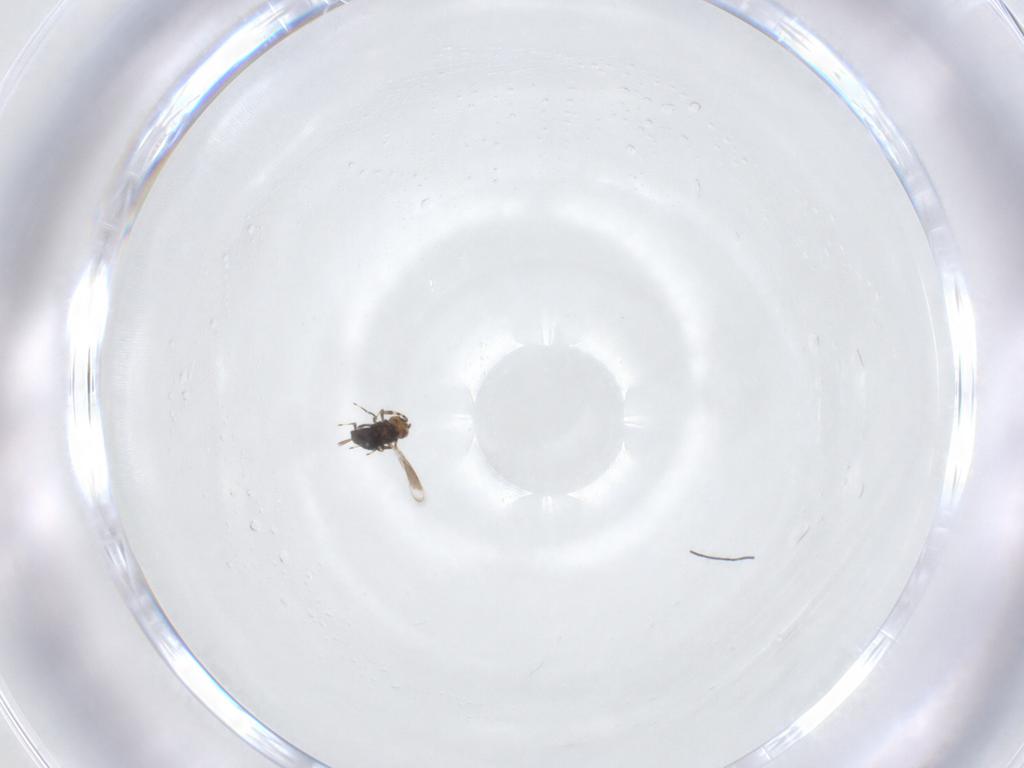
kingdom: Animalia
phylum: Arthropoda
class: Insecta
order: Hymenoptera
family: Azotidae
